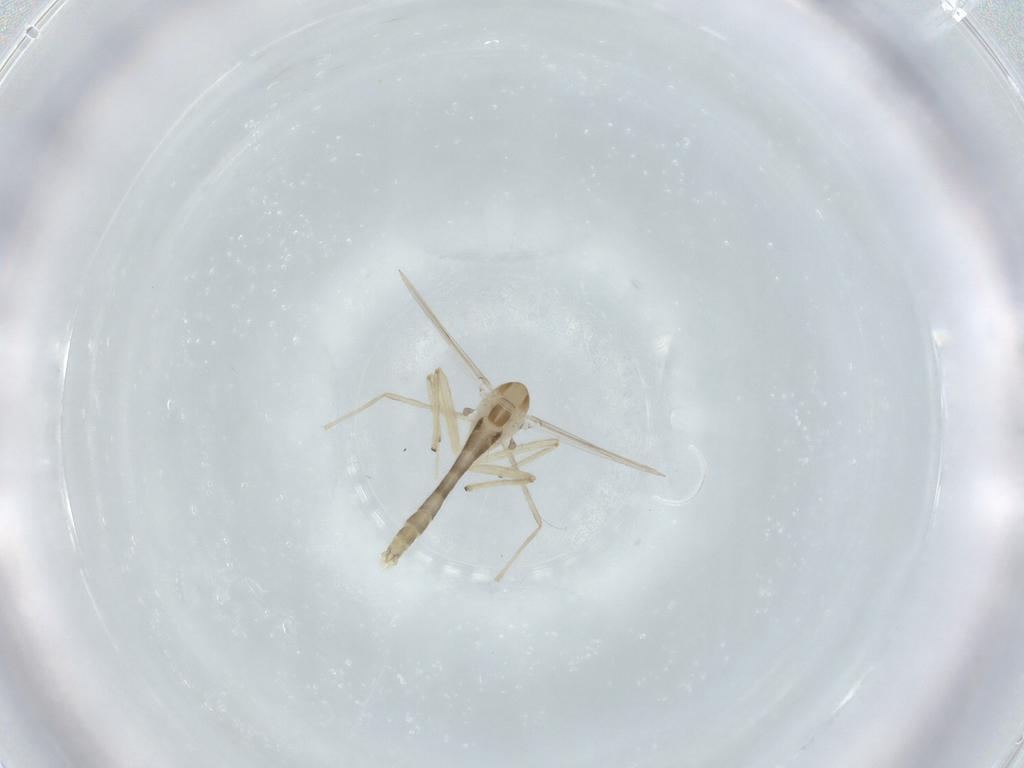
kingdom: Animalia
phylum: Arthropoda
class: Insecta
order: Diptera
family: Chironomidae
